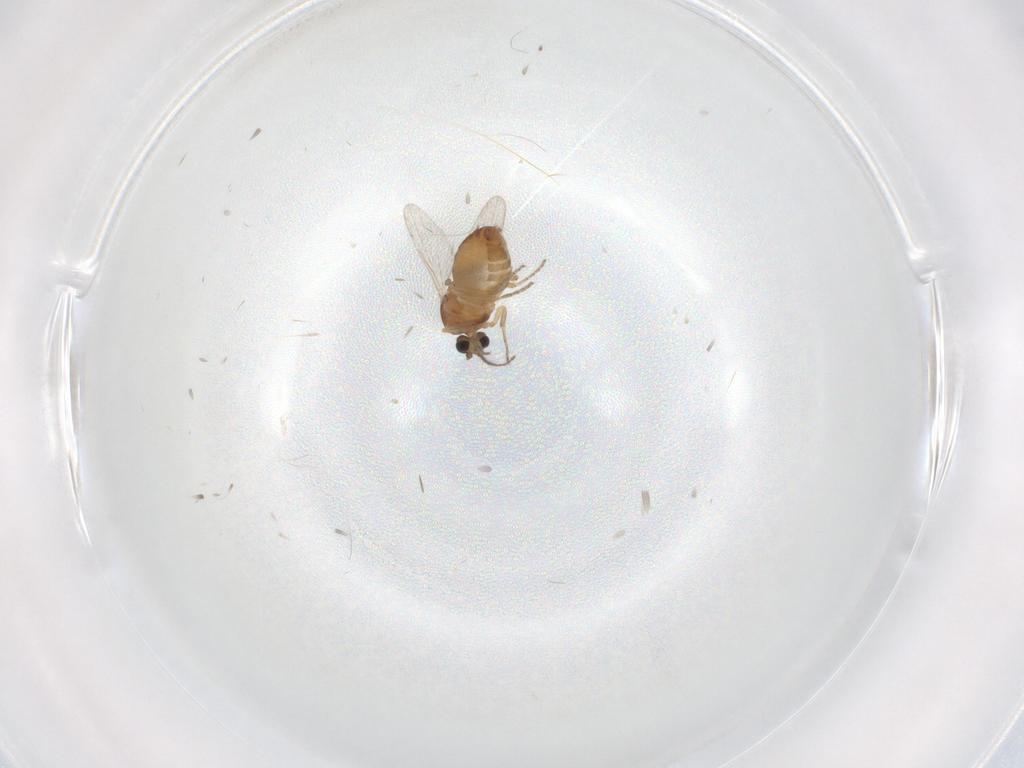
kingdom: Animalia
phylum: Arthropoda
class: Insecta
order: Diptera
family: Ceratopogonidae
